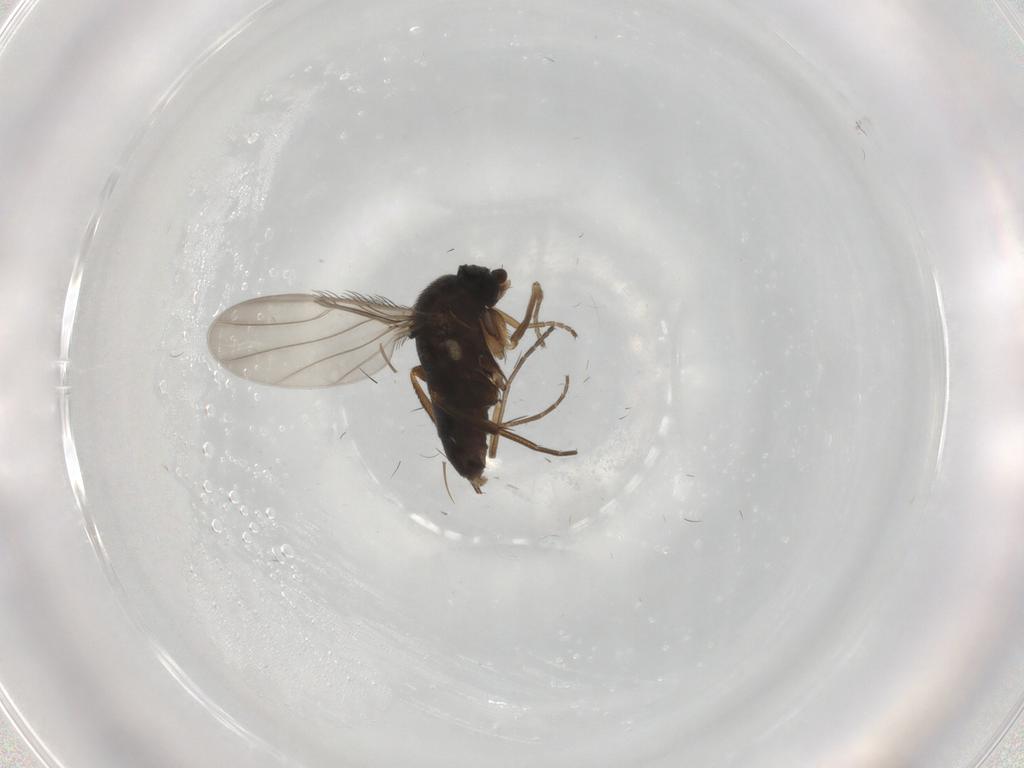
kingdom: Animalia
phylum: Arthropoda
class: Insecta
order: Diptera
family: Phoridae
